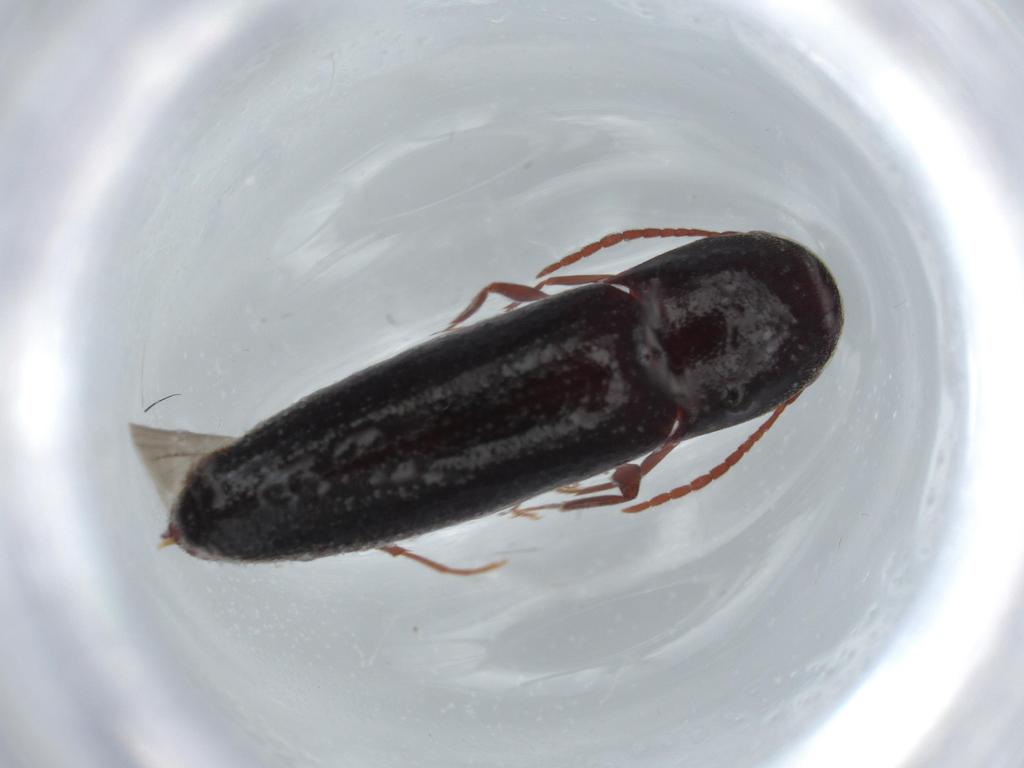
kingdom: Animalia
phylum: Arthropoda
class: Insecta
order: Coleoptera
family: Eucnemidae
